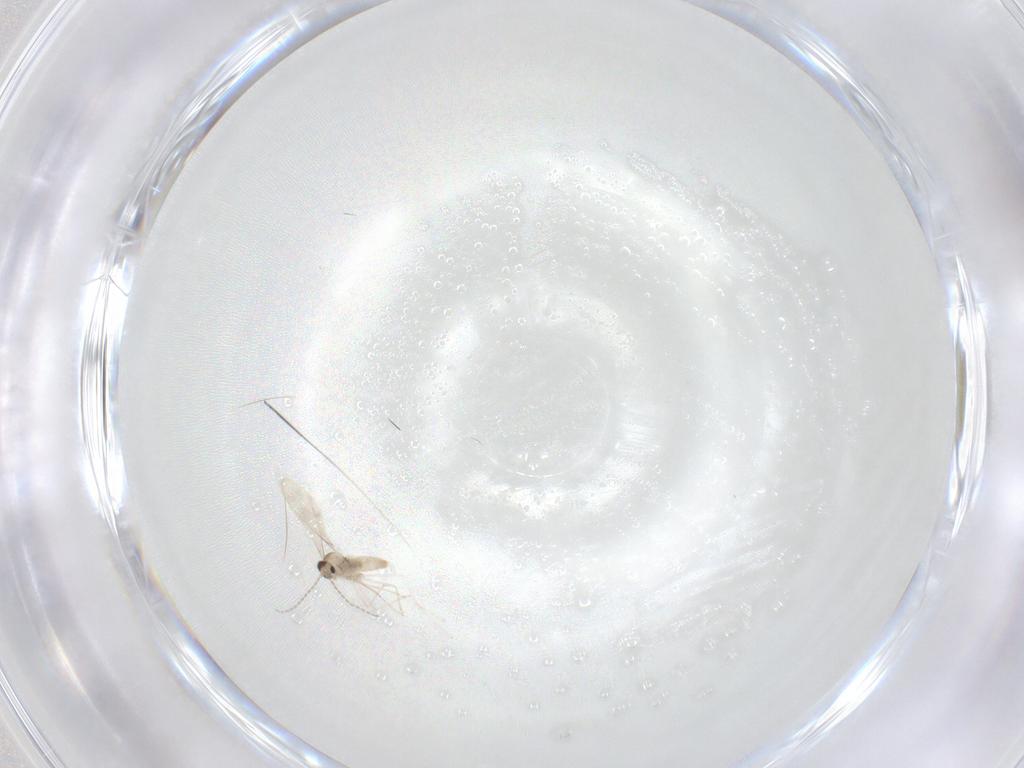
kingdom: Animalia
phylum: Arthropoda
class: Insecta
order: Diptera
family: Cecidomyiidae
